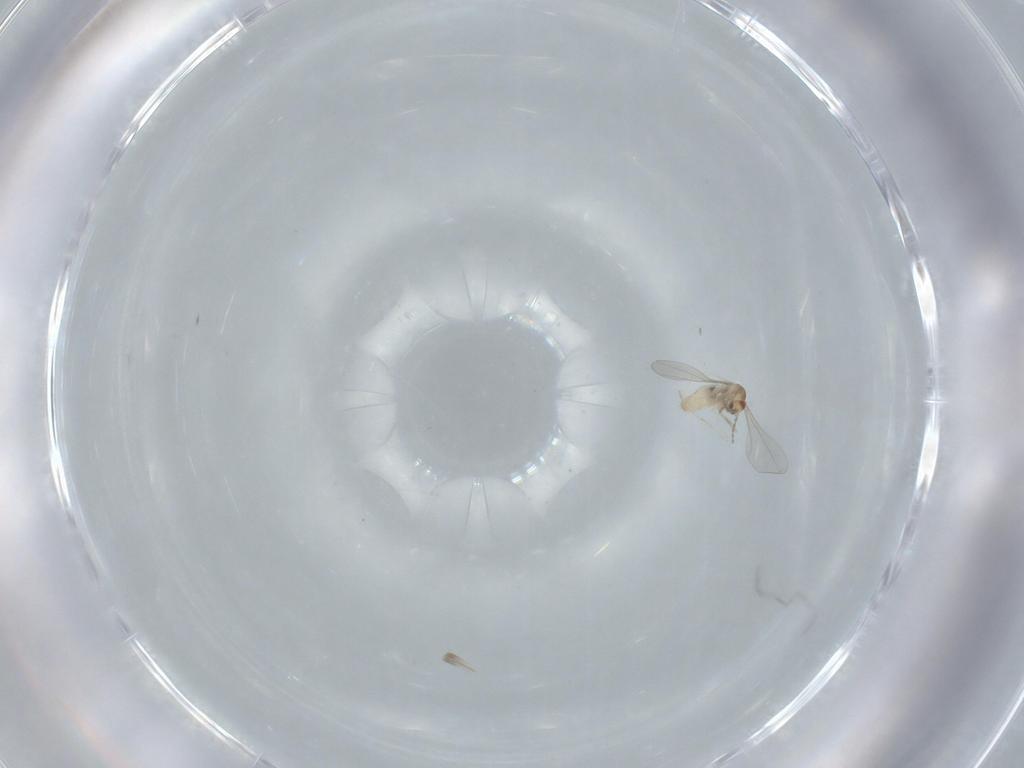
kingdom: Animalia
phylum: Arthropoda
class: Insecta
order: Diptera
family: Cecidomyiidae
